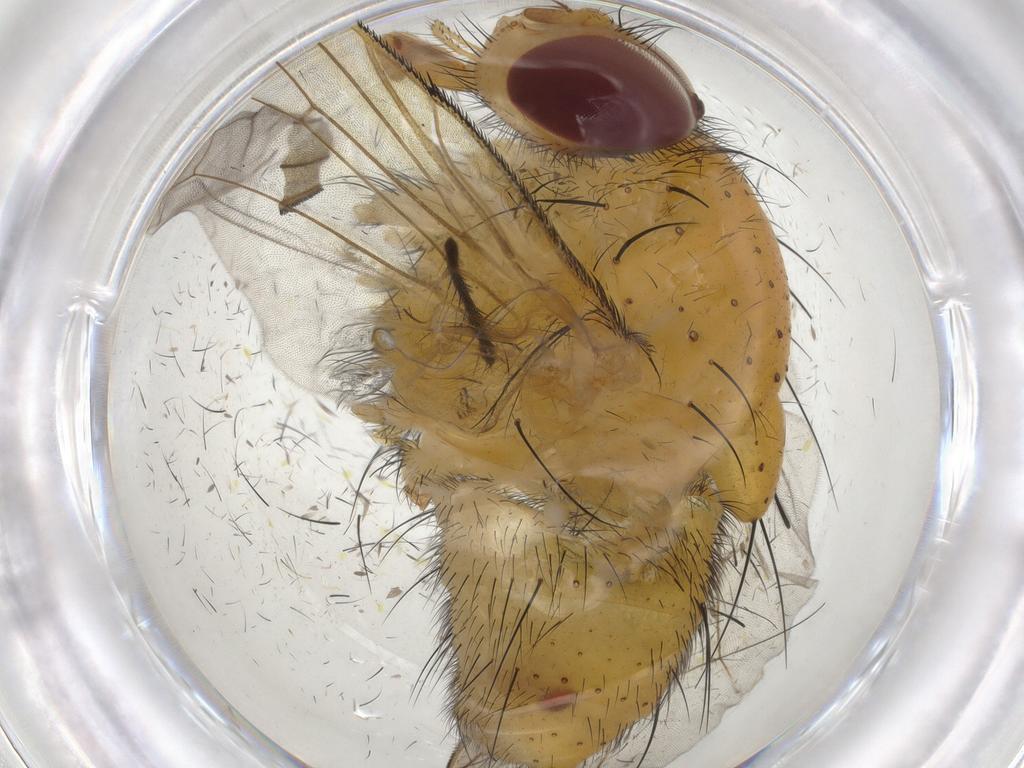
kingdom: Animalia
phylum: Arthropoda
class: Insecta
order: Diptera
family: Muscidae
